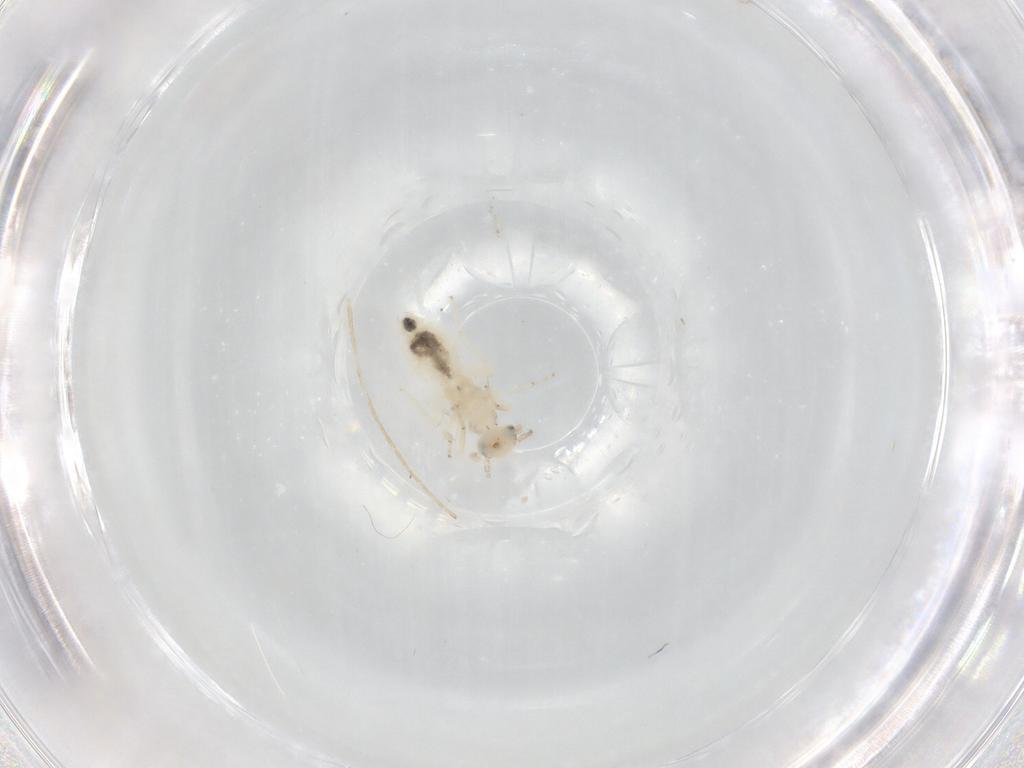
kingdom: Animalia
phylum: Arthropoda
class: Insecta
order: Psocodea
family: Lepidopsocidae
